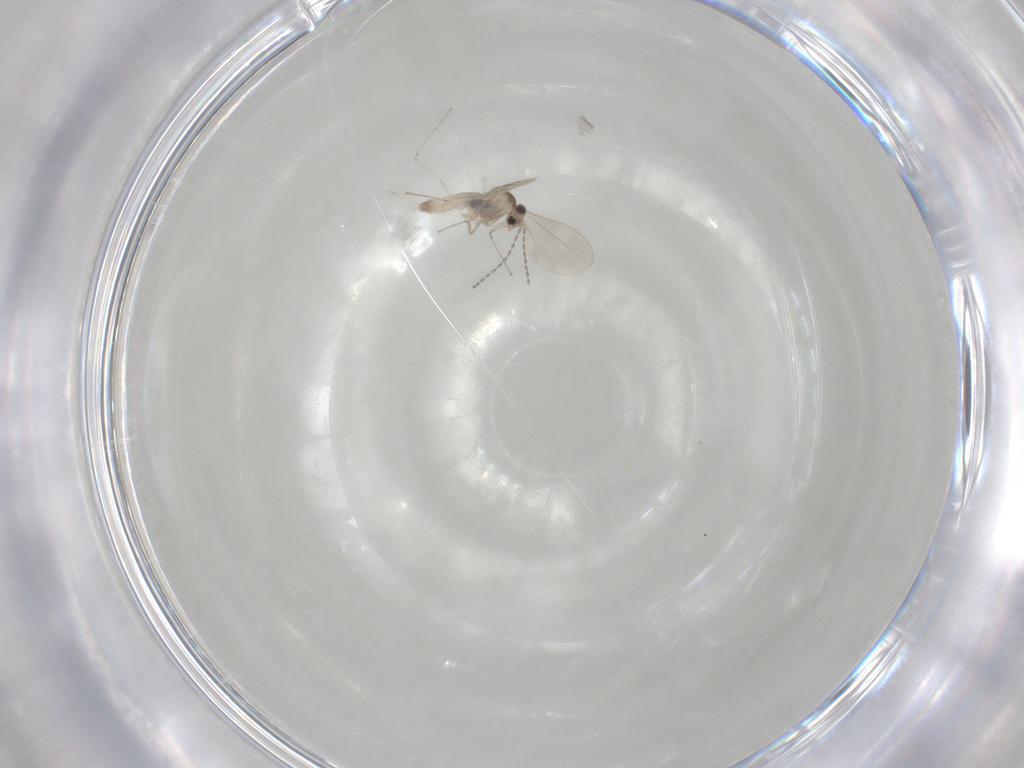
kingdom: Animalia
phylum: Arthropoda
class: Insecta
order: Diptera
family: Cecidomyiidae
